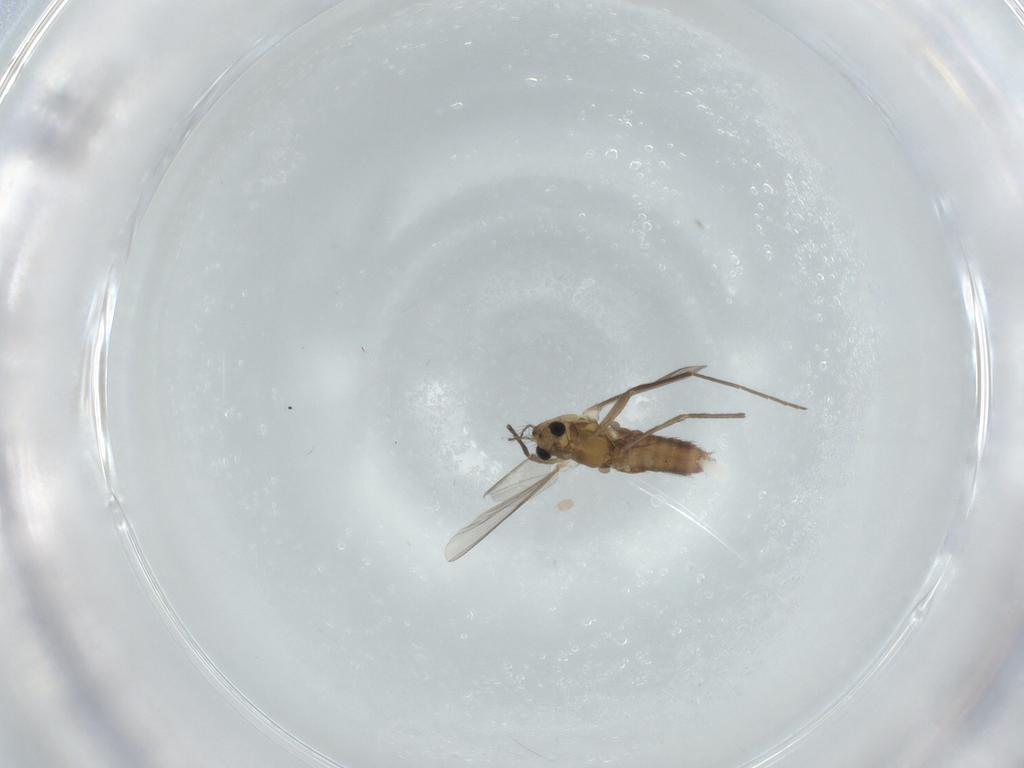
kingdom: Animalia
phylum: Arthropoda
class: Insecta
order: Diptera
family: Chironomidae
